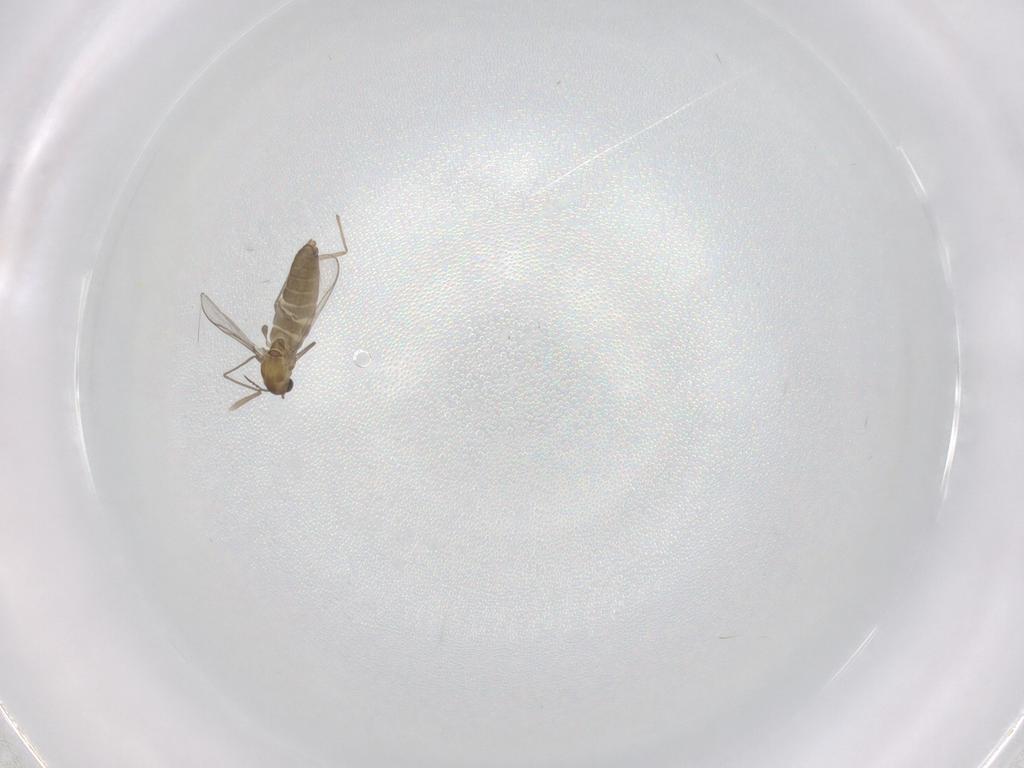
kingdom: Animalia
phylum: Arthropoda
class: Insecta
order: Diptera
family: Chironomidae
